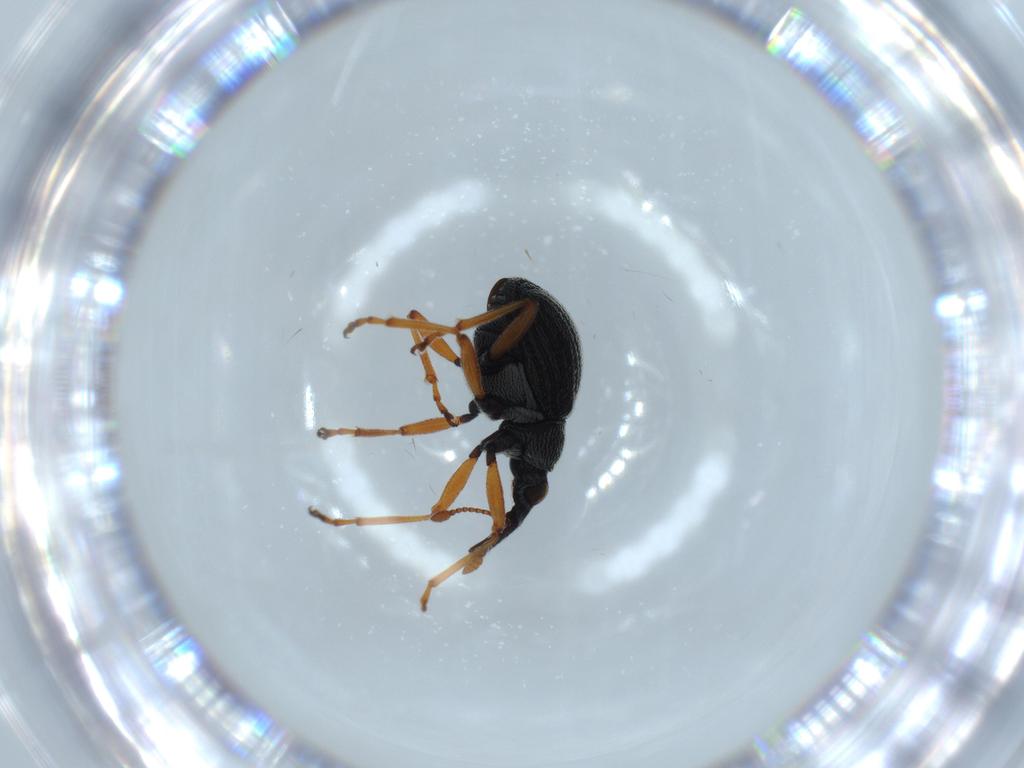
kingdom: Animalia
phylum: Arthropoda
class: Insecta
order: Coleoptera
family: Brentidae
